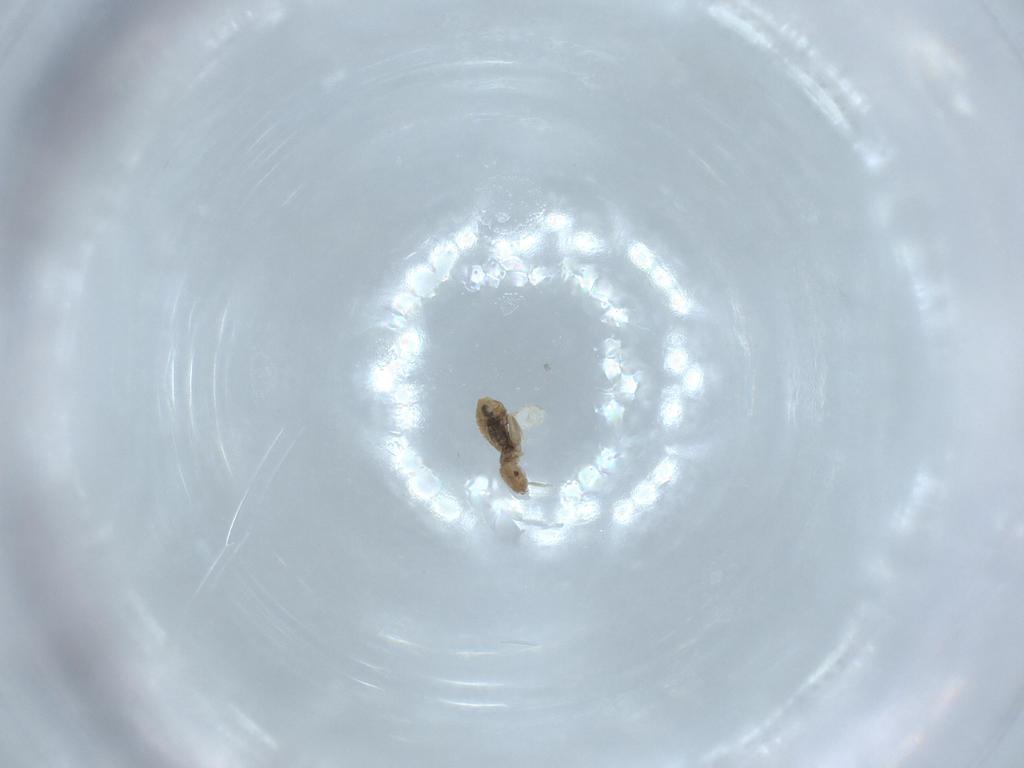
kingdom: Animalia
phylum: Arthropoda
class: Insecta
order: Psocodea
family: Liposcelididae
